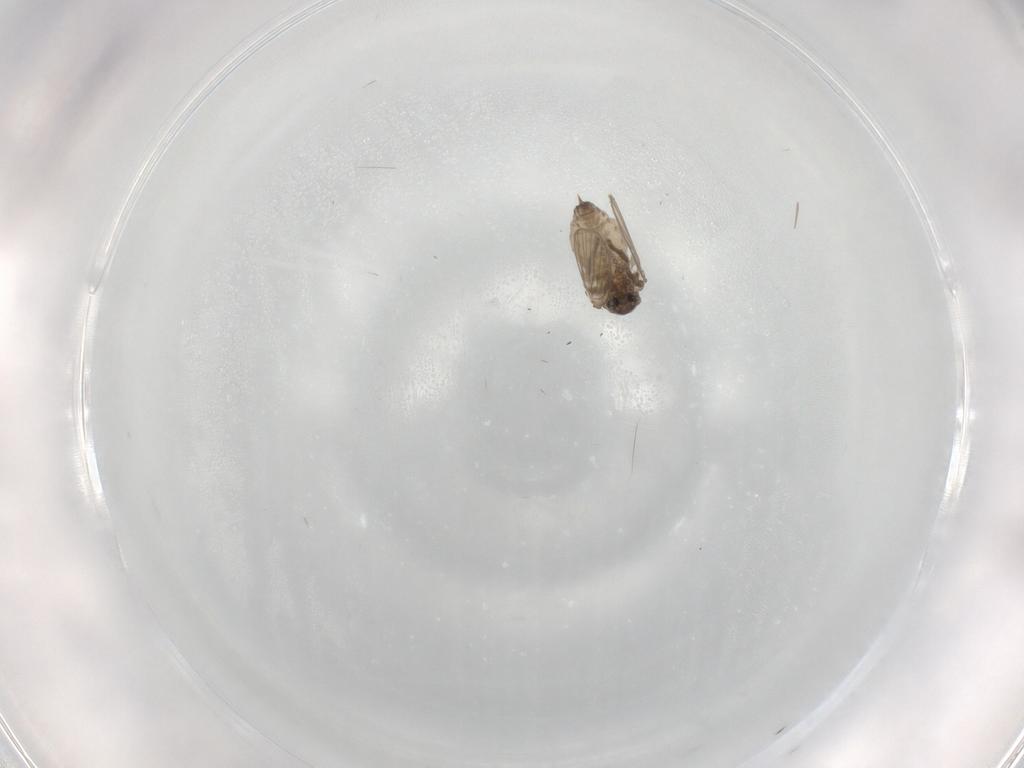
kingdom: Animalia
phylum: Arthropoda
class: Insecta
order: Diptera
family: Psychodidae
